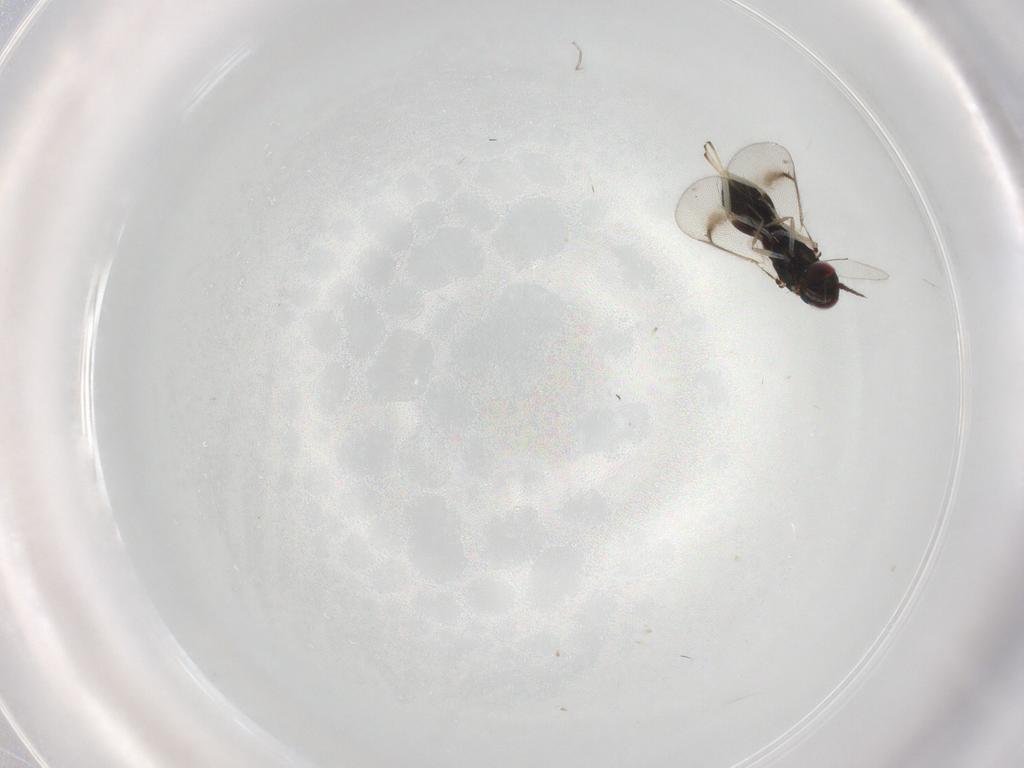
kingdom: Animalia
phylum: Arthropoda
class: Insecta
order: Hymenoptera
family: Eulophidae
